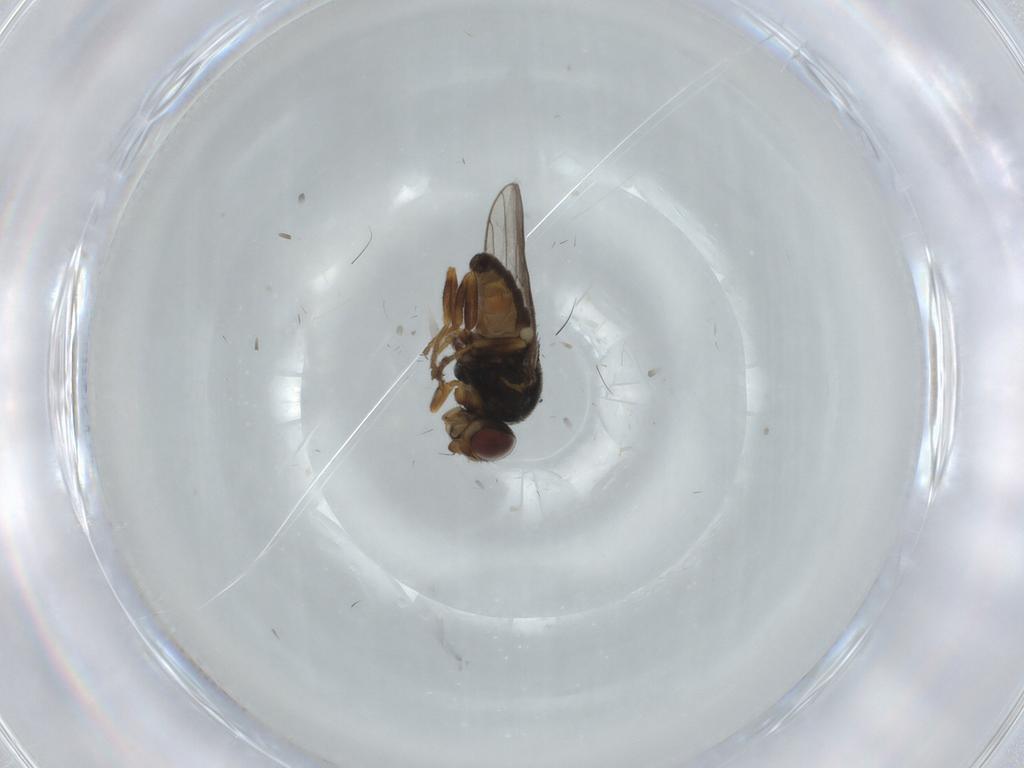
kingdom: Animalia
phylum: Arthropoda
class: Insecta
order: Diptera
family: Chloropidae
